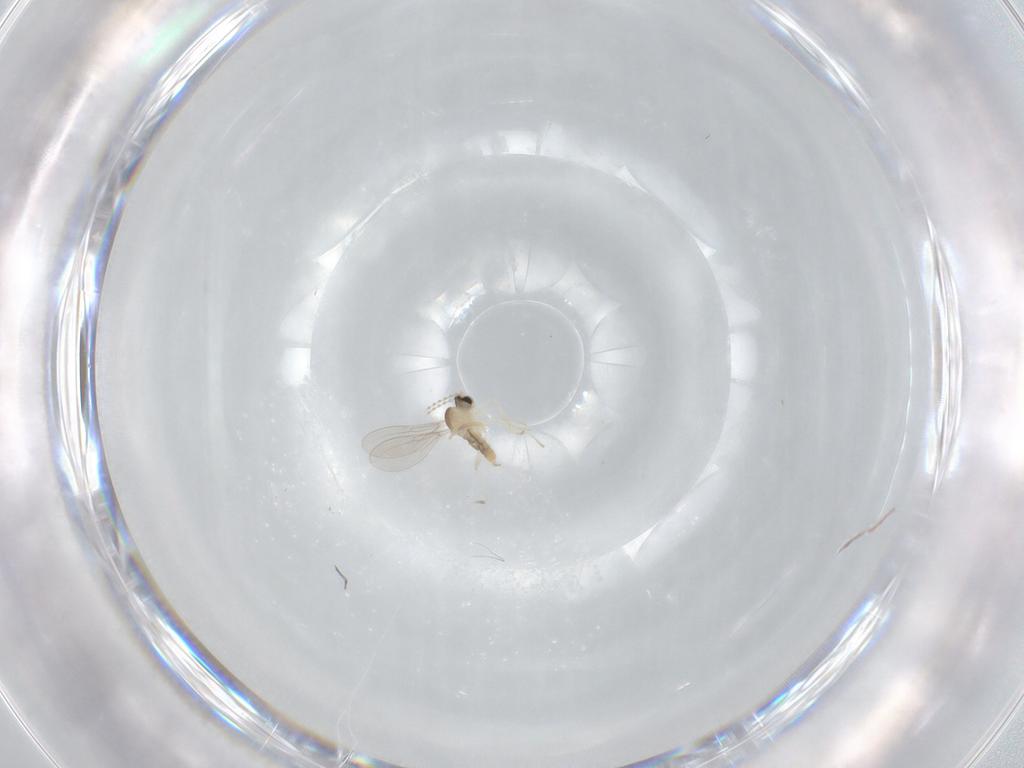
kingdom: Animalia
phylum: Arthropoda
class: Insecta
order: Diptera
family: Cecidomyiidae
